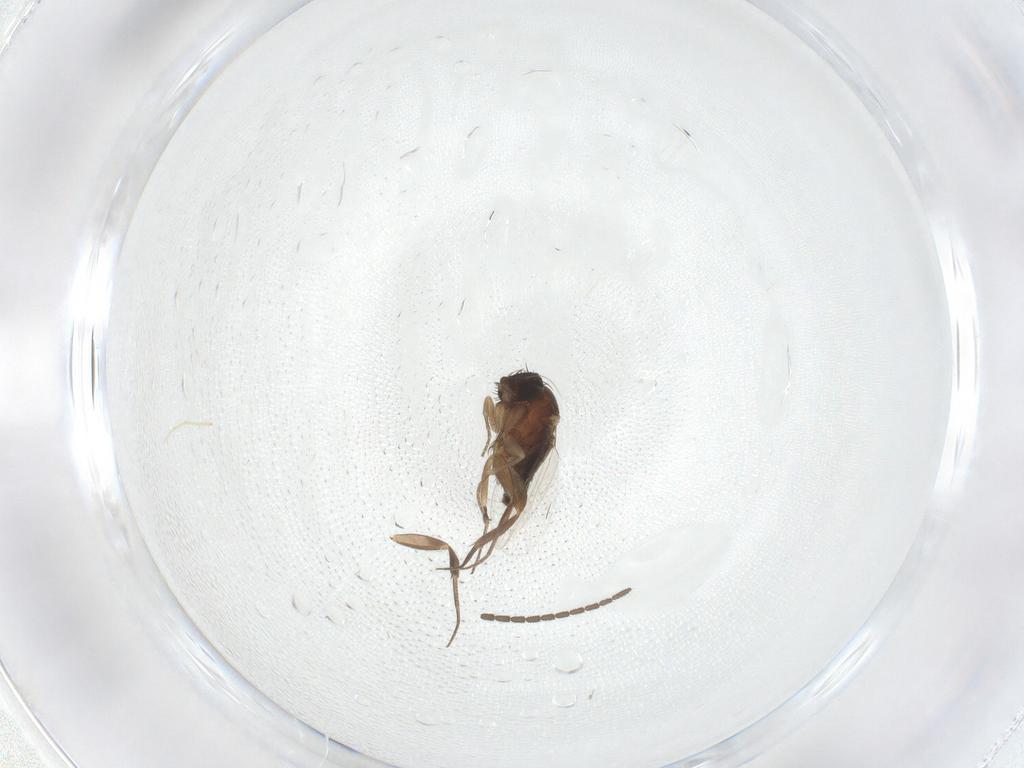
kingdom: Animalia
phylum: Arthropoda
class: Insecta
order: Diptera
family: Phoridae
